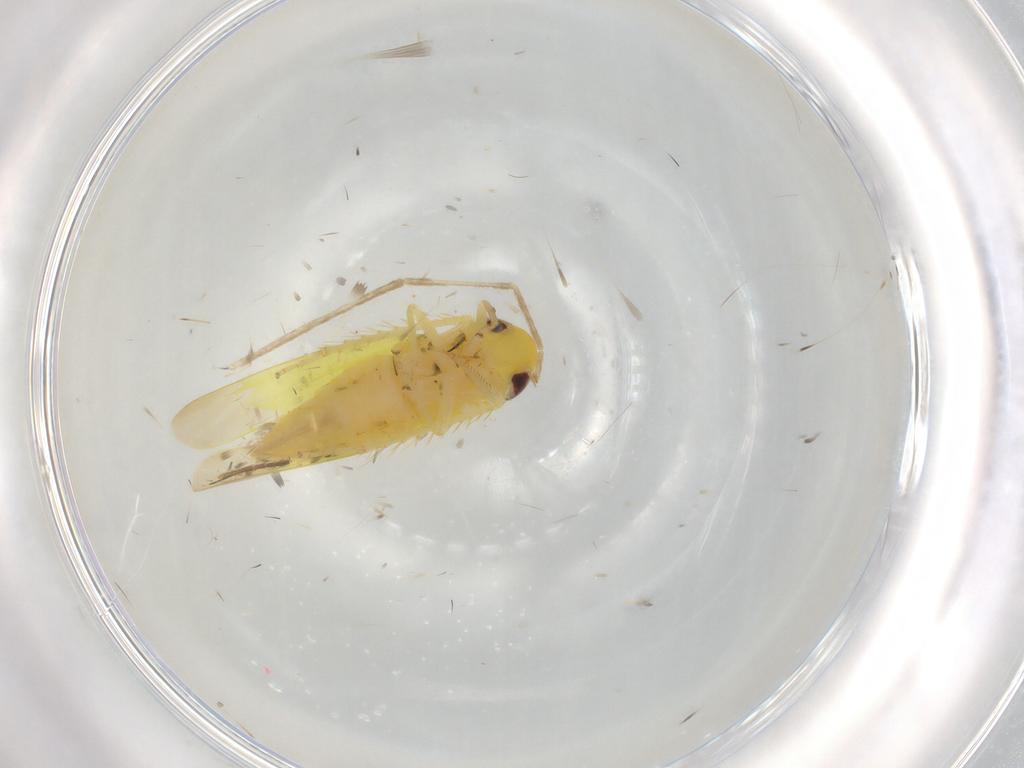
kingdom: Animalia
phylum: Arthropoda
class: Insecta
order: Hemiptera
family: Cicadellidae
